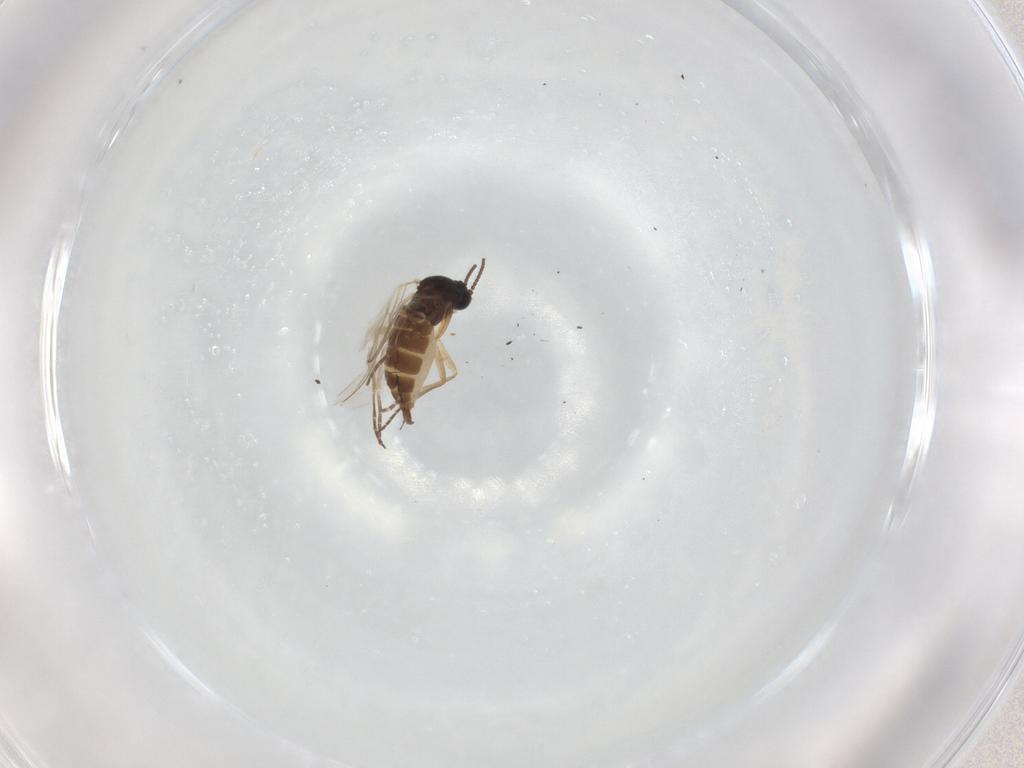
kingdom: Animalia
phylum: Arthropoda
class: Insecta
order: Diptera
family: Sciaridae
